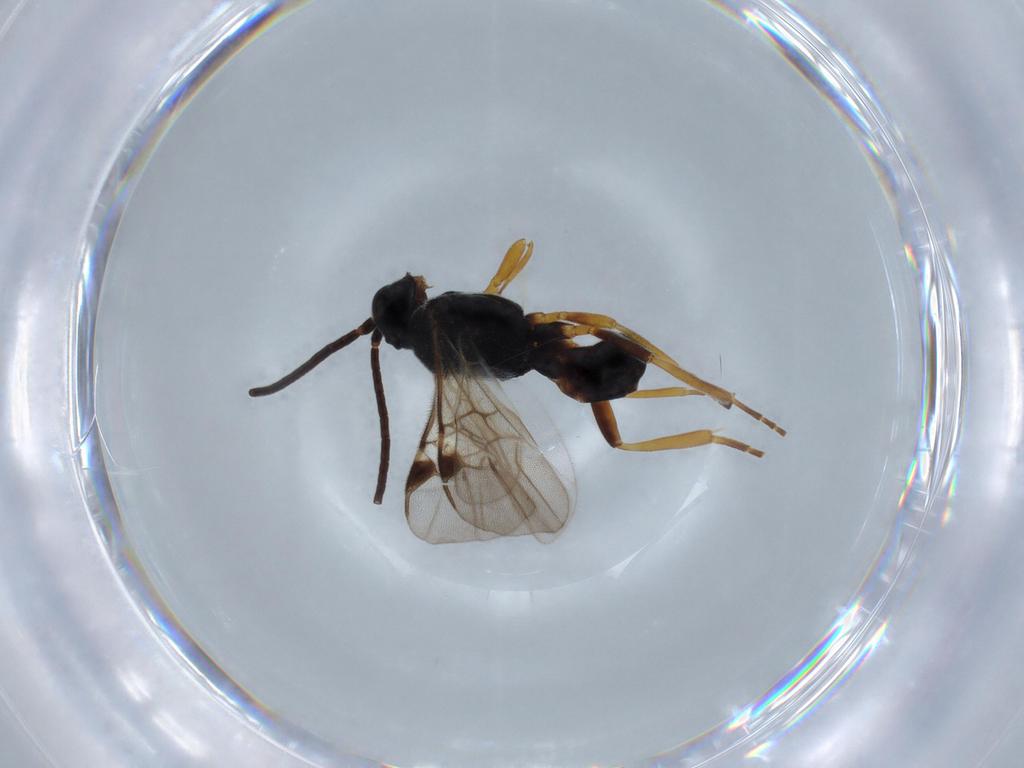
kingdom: Animalia
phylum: Arthropoda
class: Insecta
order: Hymenoptera
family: Braconidae
